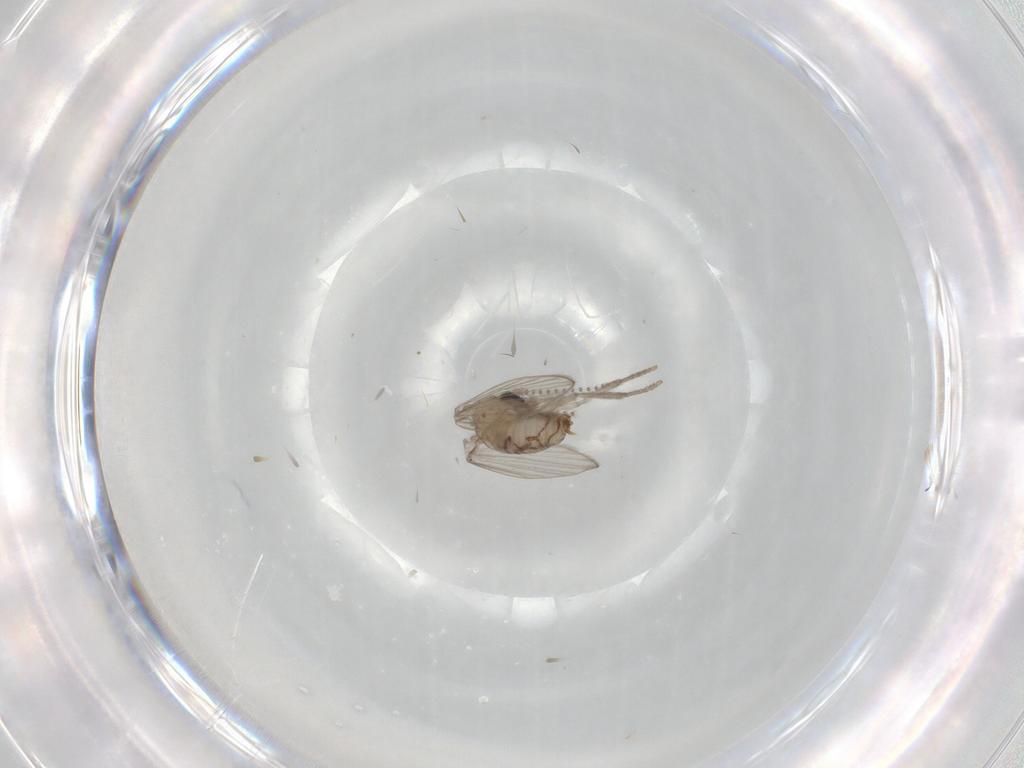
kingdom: Animalia
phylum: Arthropoda
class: Insecta
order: Diptera
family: Psychodidae
